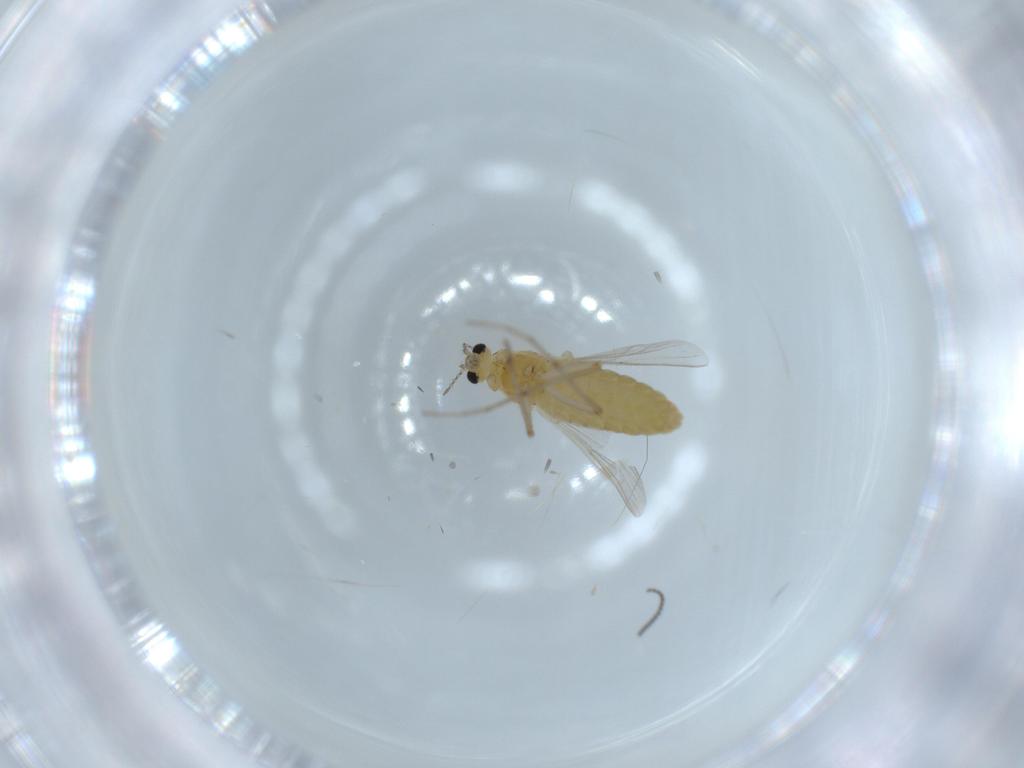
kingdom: Animalia
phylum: Arthropoda
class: Insecta
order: Diptera
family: Chironomidae
